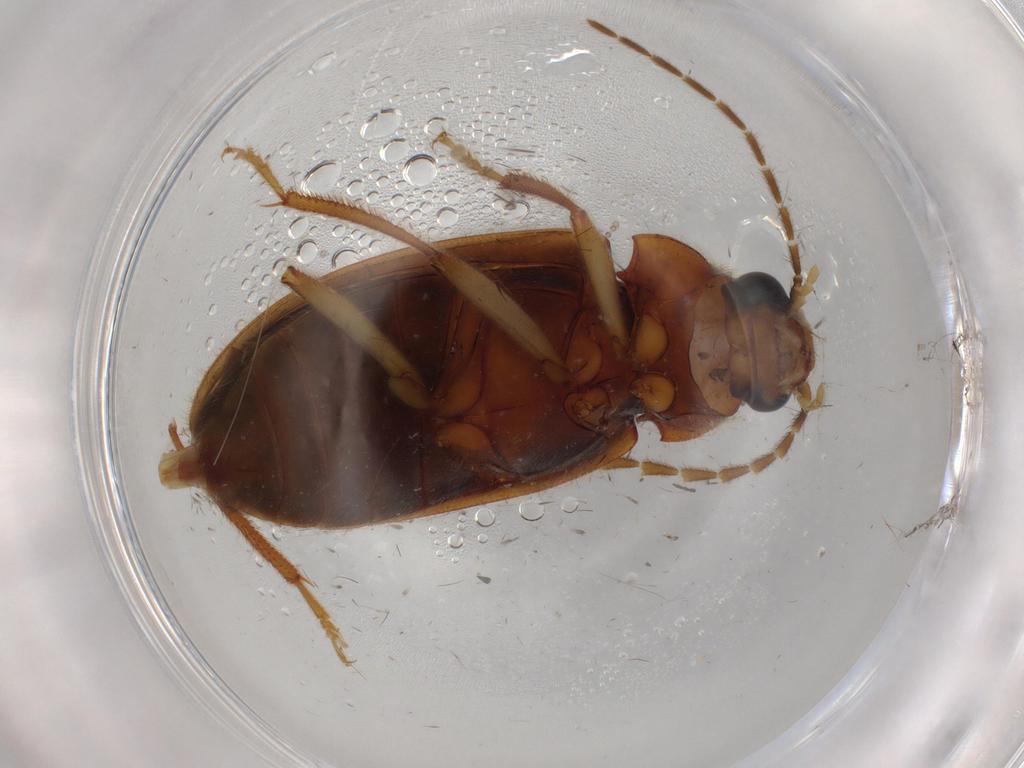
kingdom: Animalia
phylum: Arthropoda
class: Insecta
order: Coleoptera
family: Ptilodactylidae
